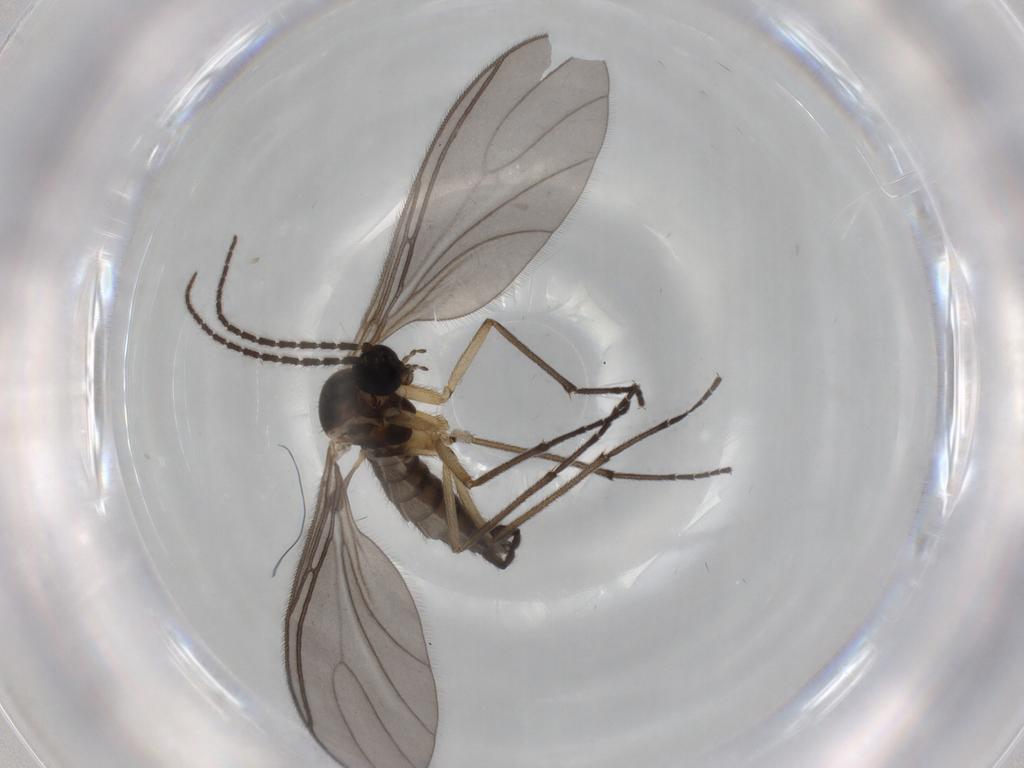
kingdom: Animalia
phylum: Arthropoda
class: Insecta
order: Diptera
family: Sciaridae
